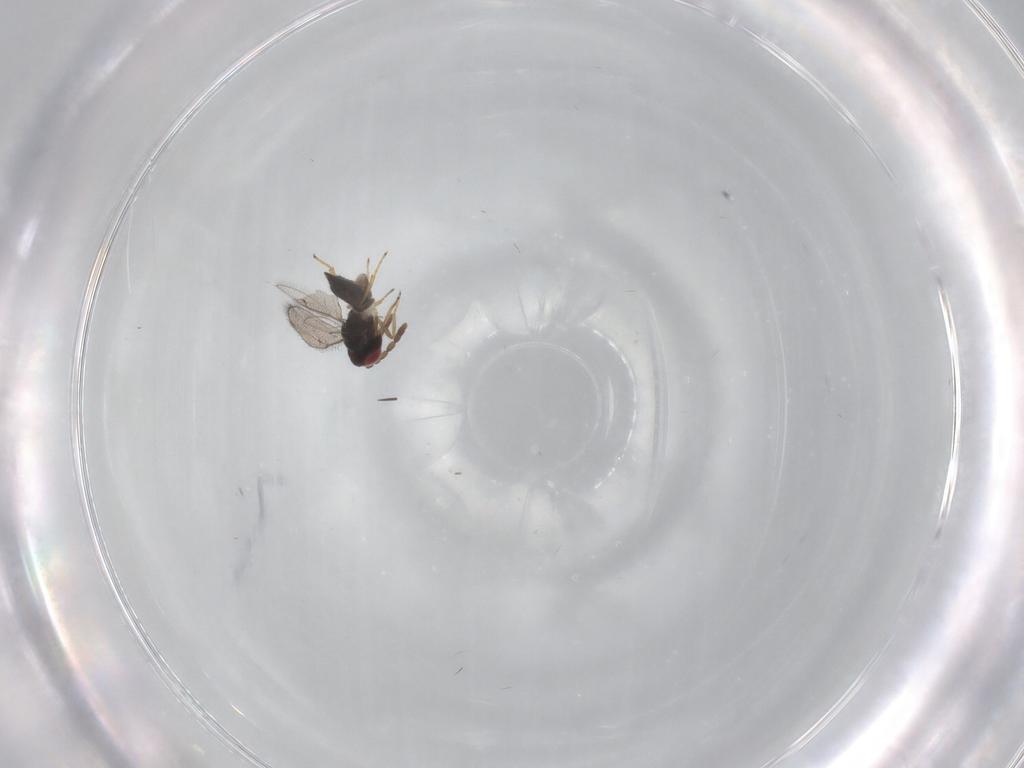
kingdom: Animalia
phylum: Arthropoda
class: Insecta
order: Hymenoptera
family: Eulophidae
